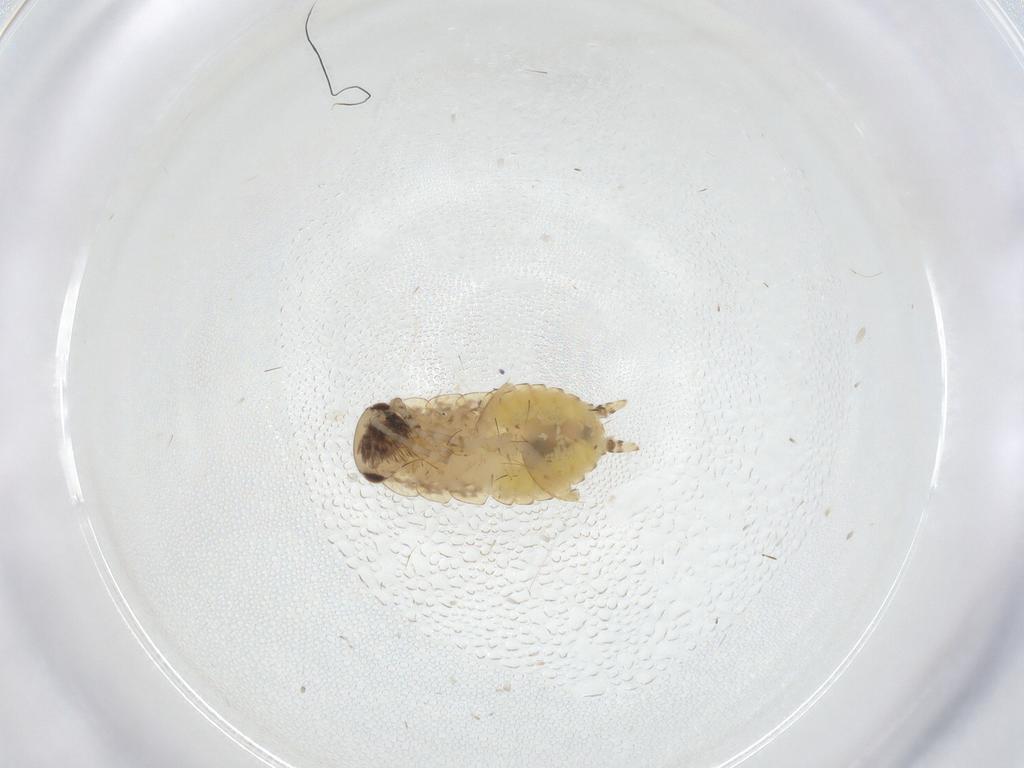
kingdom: Animalia
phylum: Arthropoda
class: Insecta
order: Blattodea
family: Ectobiidae
